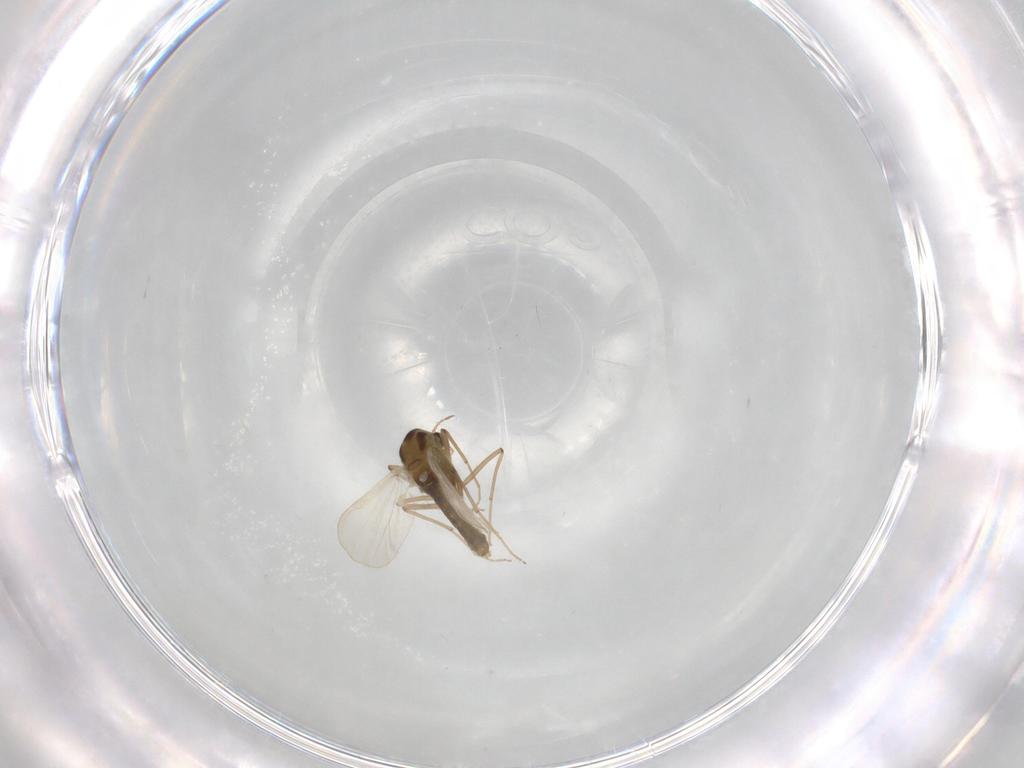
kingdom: Animalia
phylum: Arthropoda
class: Insecta
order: Diptera
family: Chironomidae
